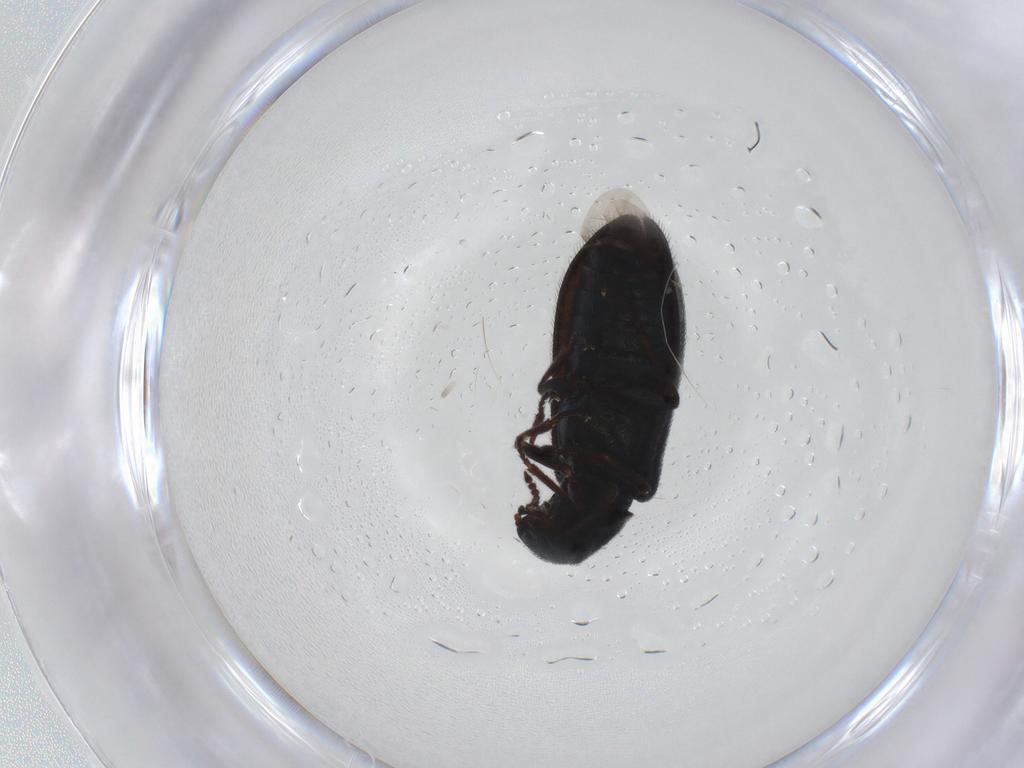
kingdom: Animalia
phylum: Arthropoda
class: Insecta
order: Coleoptera
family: Melyridae
